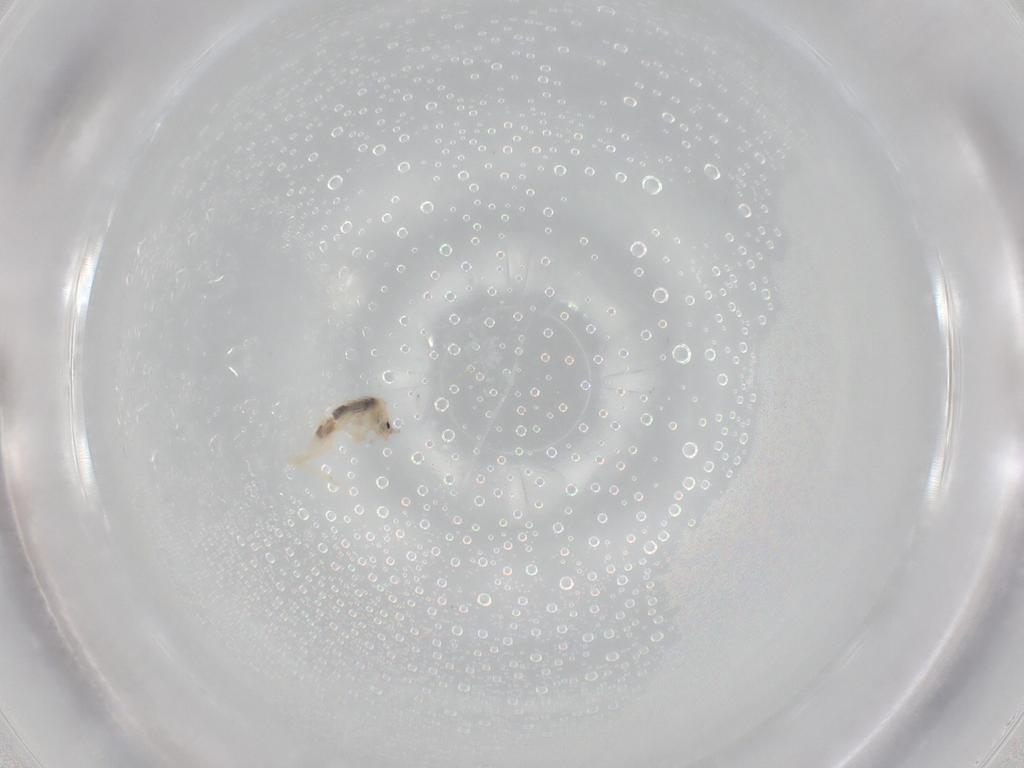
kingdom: Animalia
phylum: Arthropoda
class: Collembola
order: Entomobryomorpha
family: Entomobryidae
